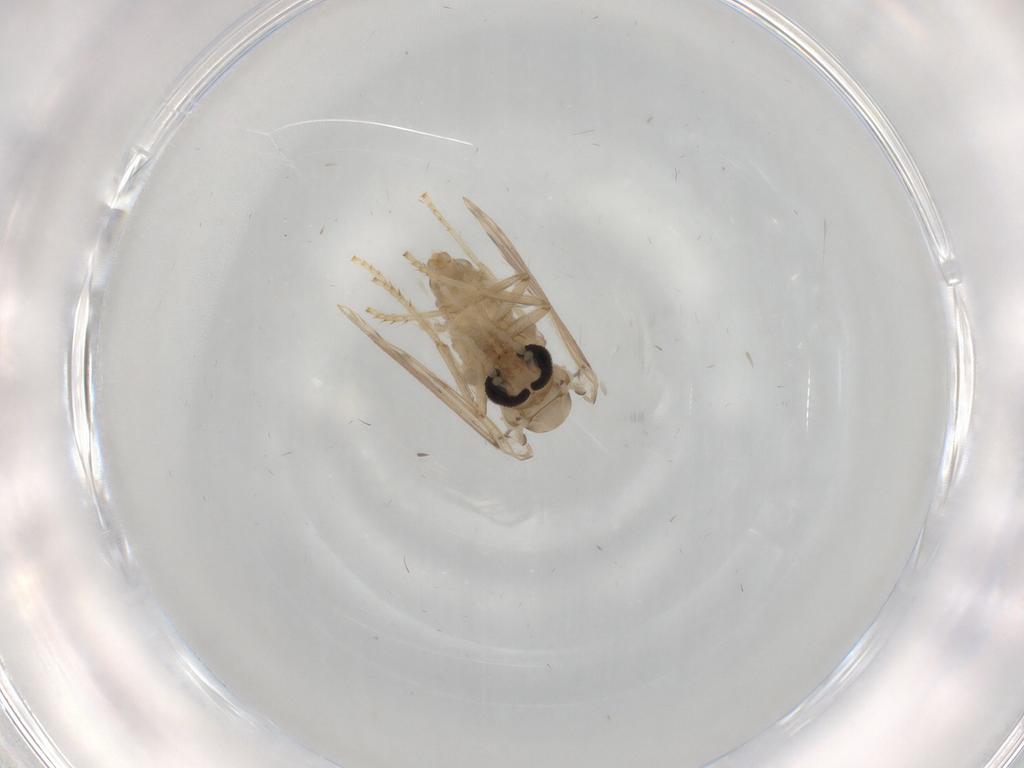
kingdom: Animalia
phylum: Arthropoda
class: Insecta
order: Diptera
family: Psychodidae
